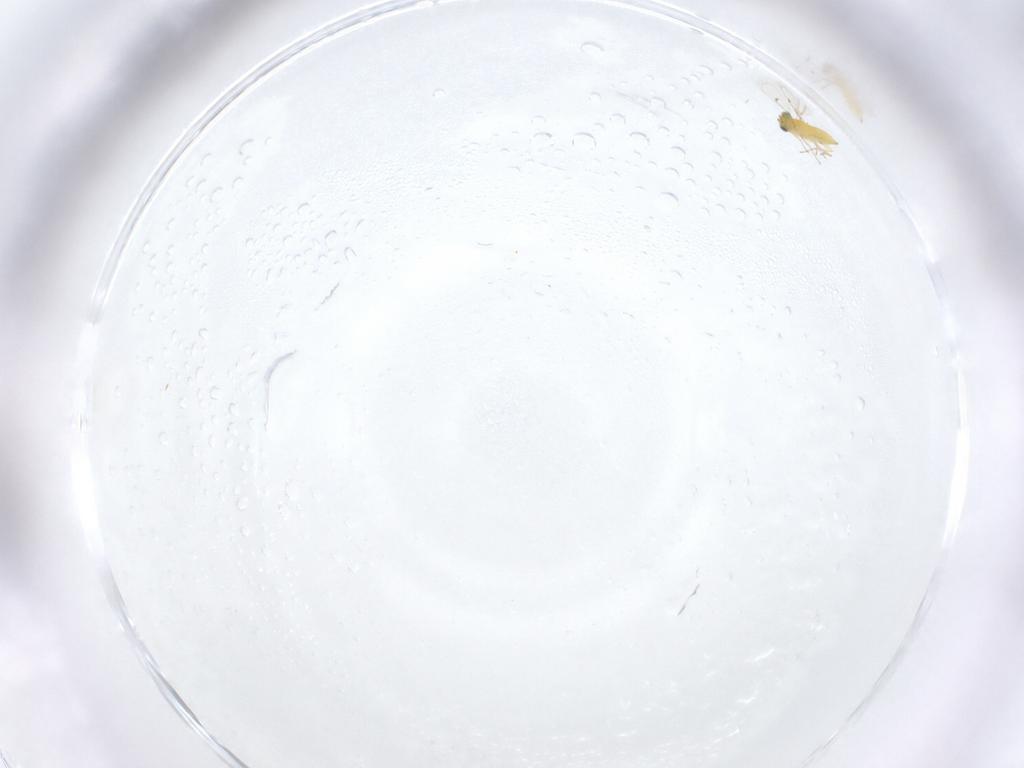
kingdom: Animalia
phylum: Arthropoda
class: Insecta
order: Hymenoptera
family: Trichogrammatidae
